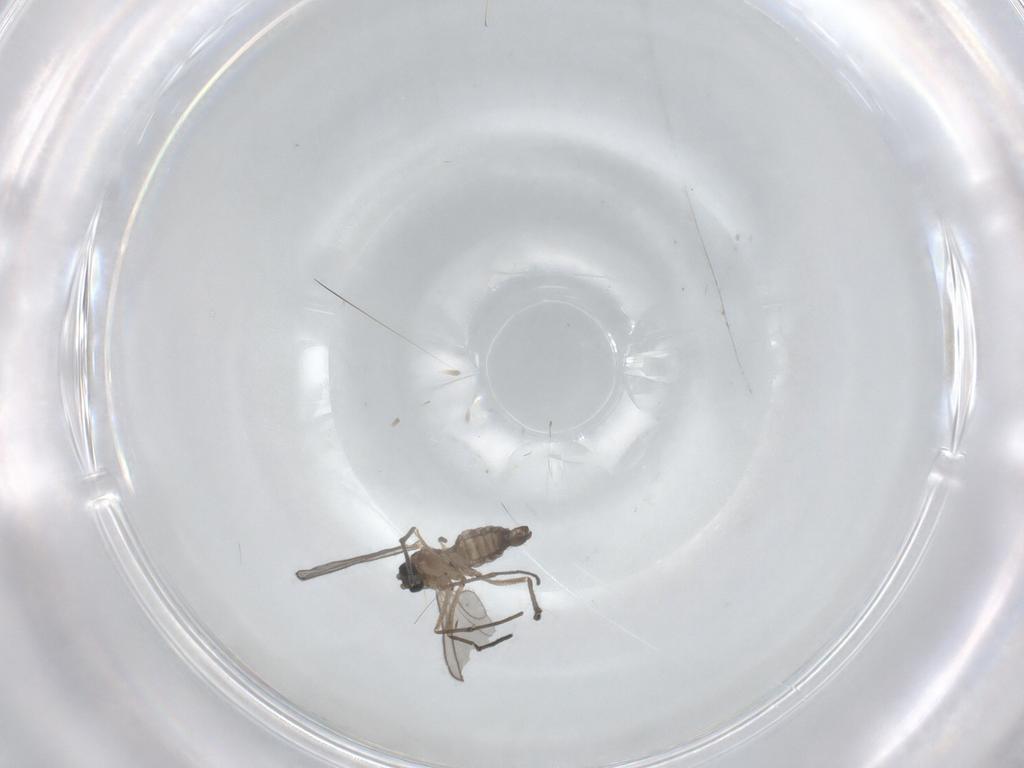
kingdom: Animalia
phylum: Arthropoda
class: Insecta
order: Diptera
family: Sciaridae
